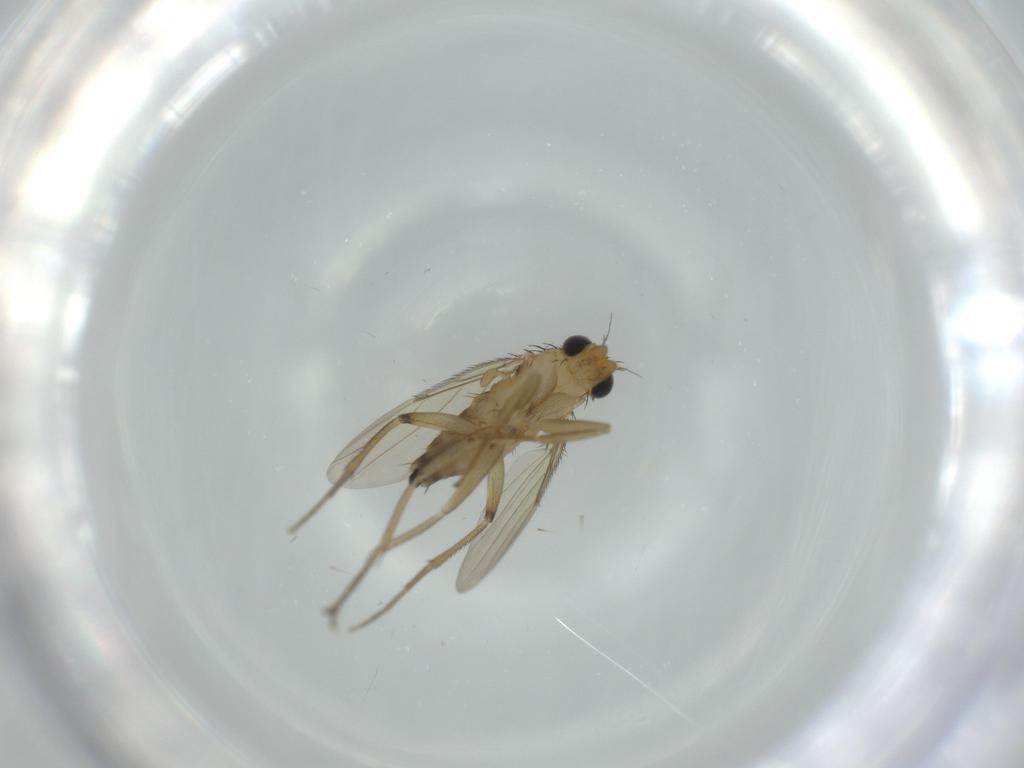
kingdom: Animalia
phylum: Arthropoda
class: Insecta
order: Diptera
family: Phoridae
